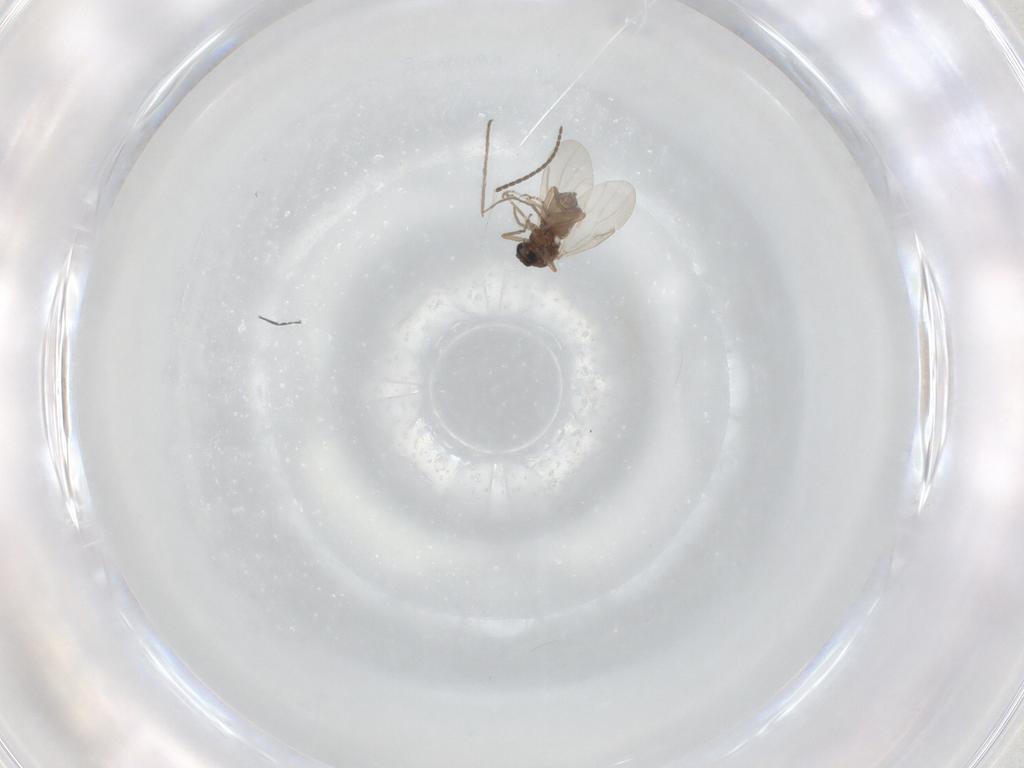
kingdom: Animalia
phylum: Arthropoda
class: Insecta
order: Diptera
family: Ceratopogonidae
